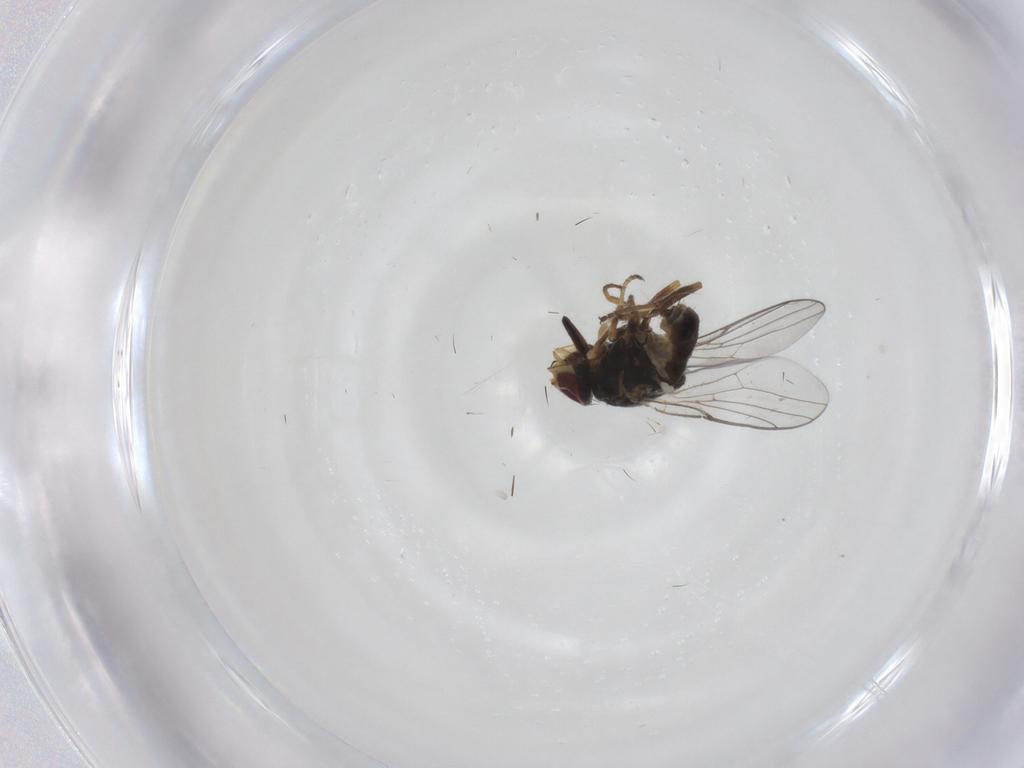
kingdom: Animalia
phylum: Arthropoda
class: Insecta
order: Diptera
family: Chloropidae
